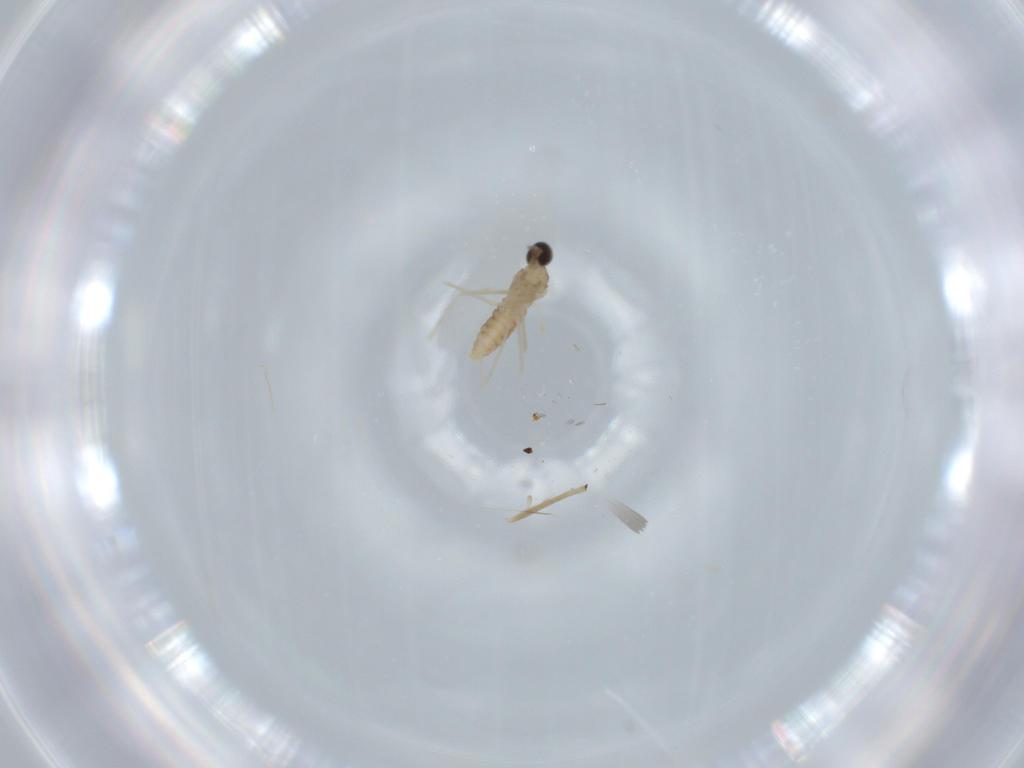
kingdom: Animalia
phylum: Arthropoda
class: Insecta
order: Diptera
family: Cecidomyiidae
